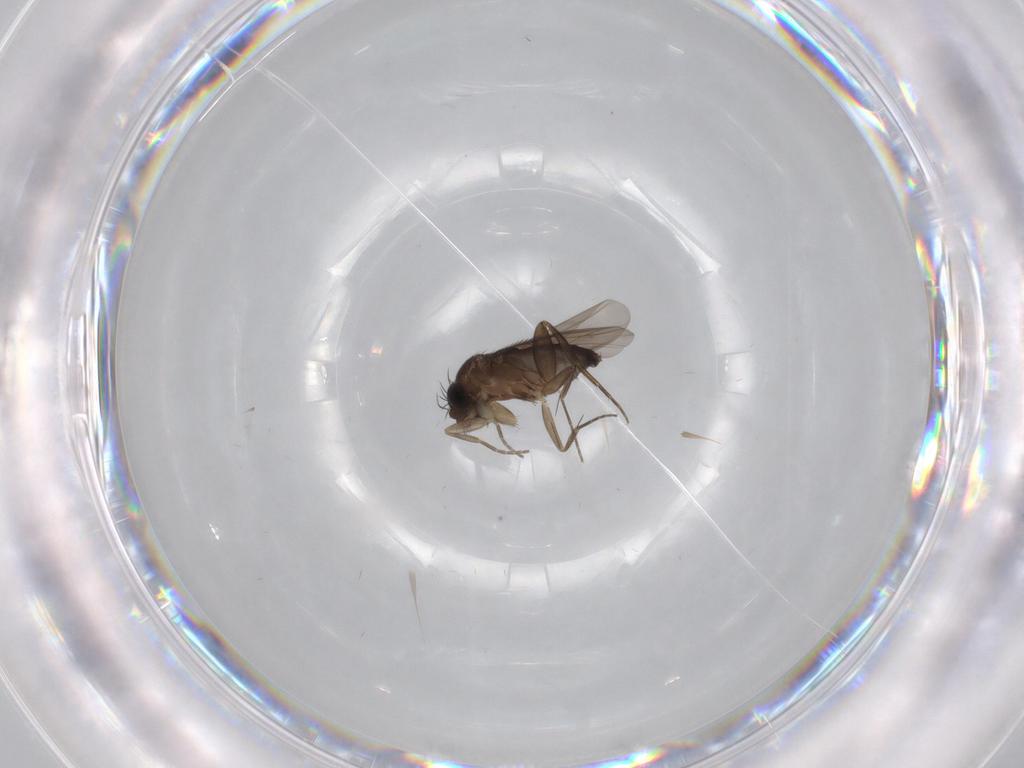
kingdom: Animalia
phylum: Arthropoda
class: Insecta
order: Diptera
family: Phoridae
